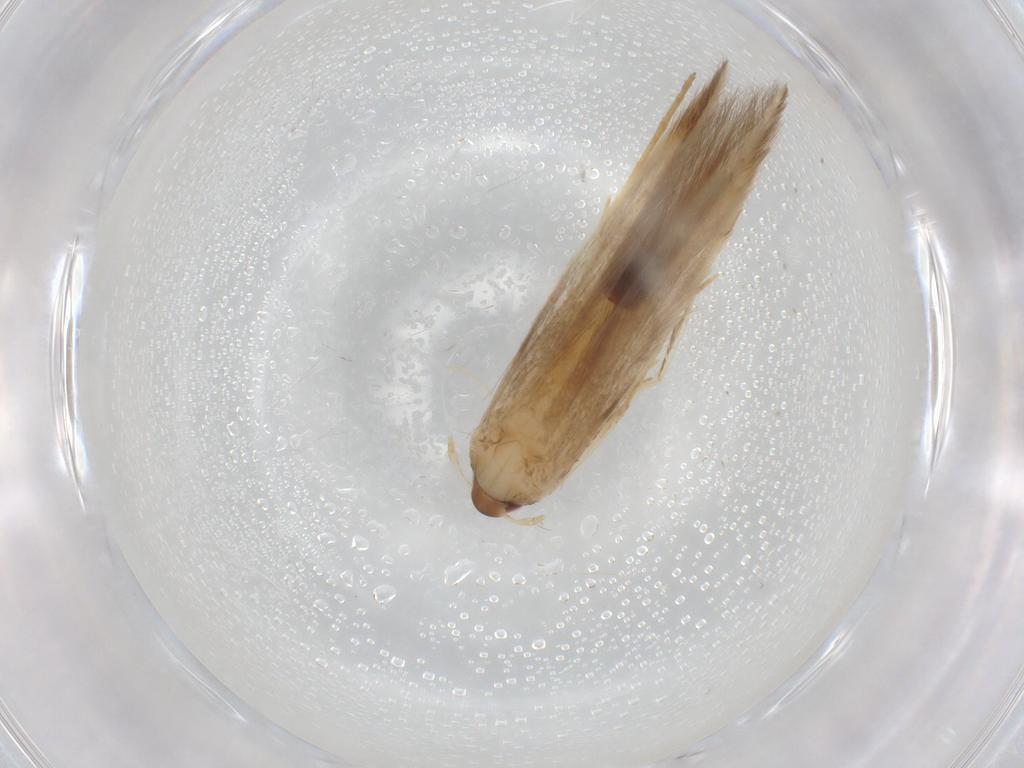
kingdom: Animalia
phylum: Arthropoda
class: Insecta
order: Lepidoptera
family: Cosmopterigidae
